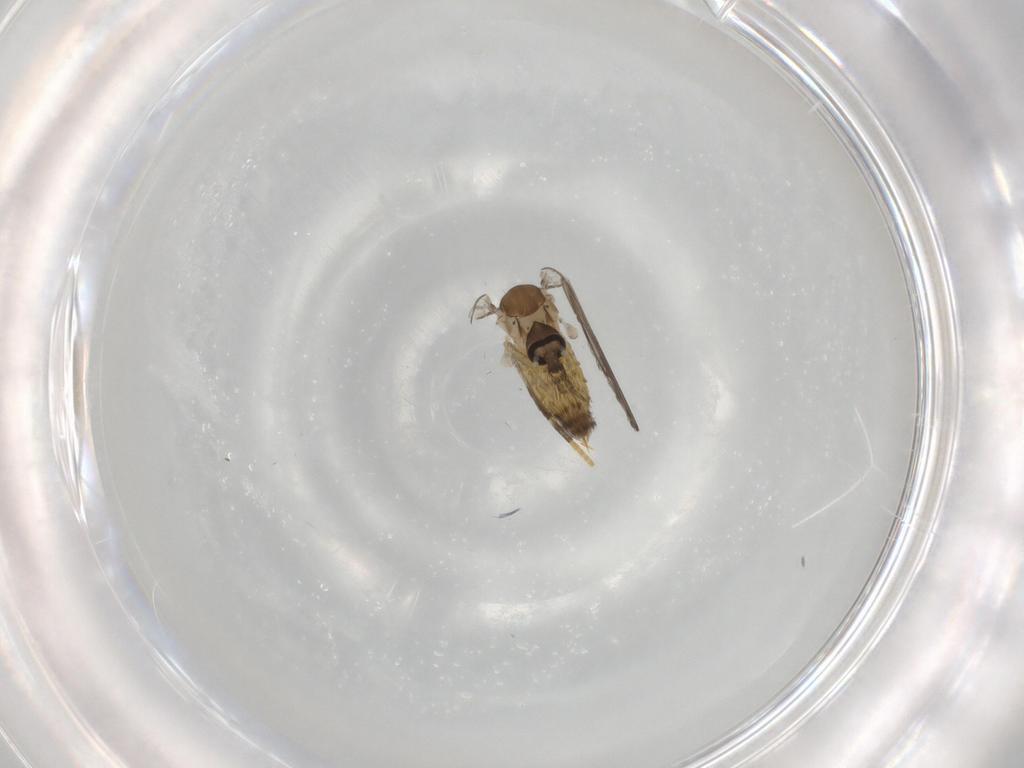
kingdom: Animalia
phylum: Arthropoda
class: Insecta
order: Diptera
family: Psychodidae
